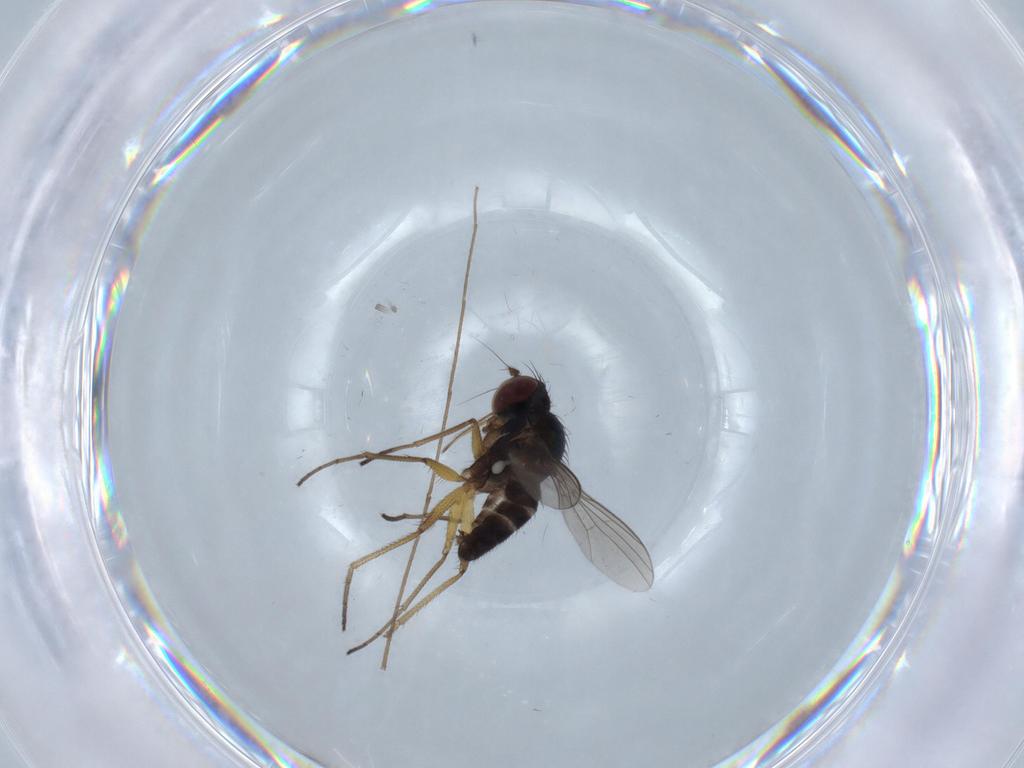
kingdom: Animalia
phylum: Arthropoda
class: Insecta
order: Diptera
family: Dolichopodidae
